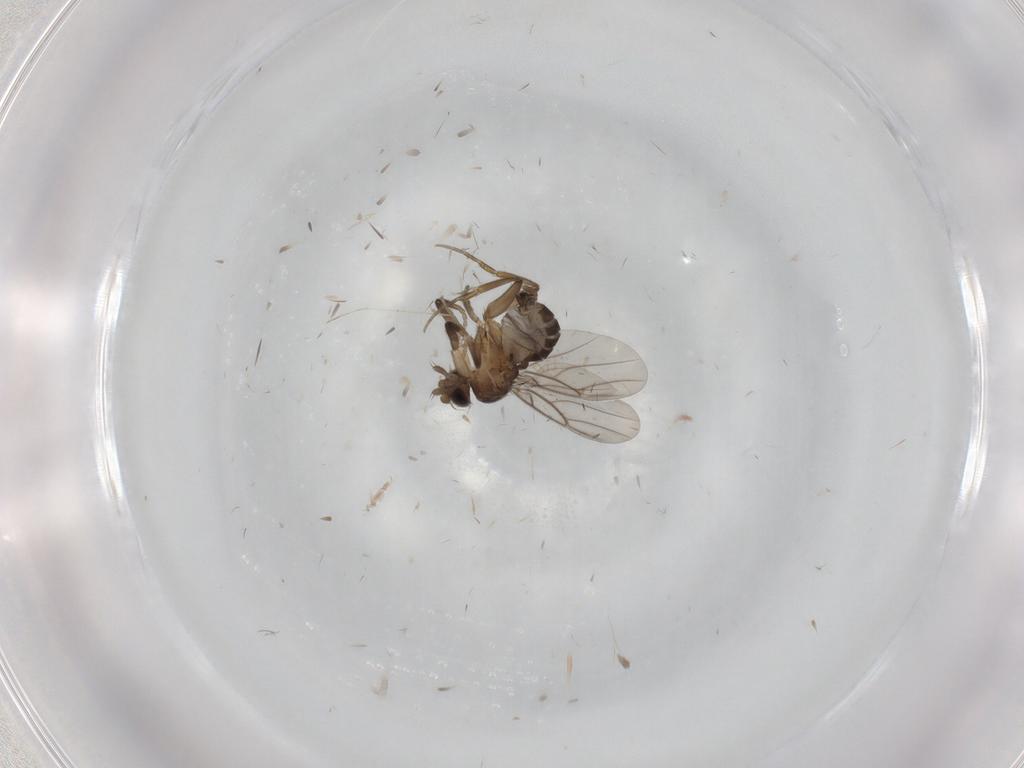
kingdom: Animalia
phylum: Arthropoda
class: Insecta
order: Diptera
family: Phoridae
